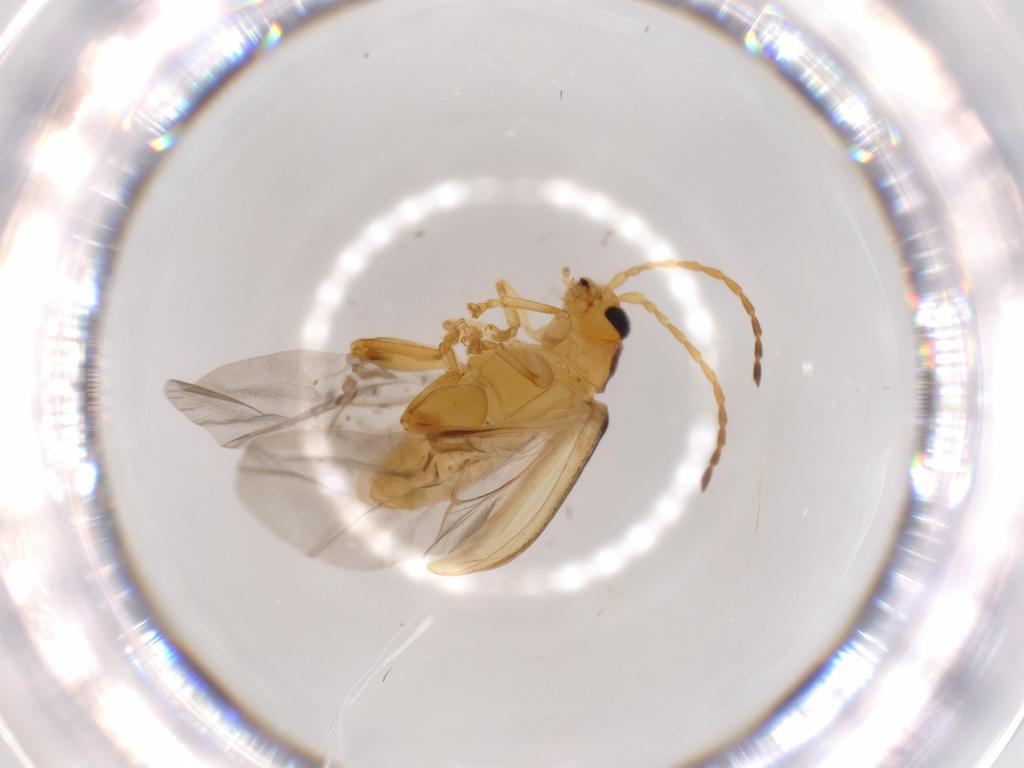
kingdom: Animalia
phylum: Arthropoda
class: Insecta
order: Coleoptera
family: Chrysomelidae
